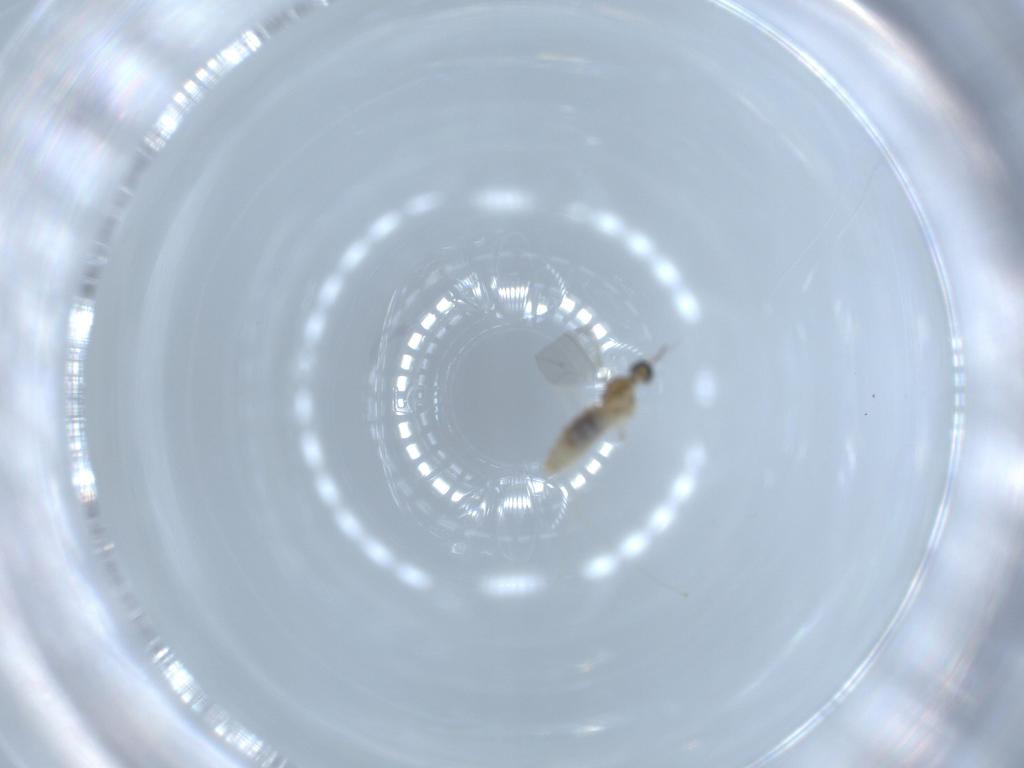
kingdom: Animalia
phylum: Arthropoda
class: Insecta
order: Diptera
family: Cecidomyiidae
